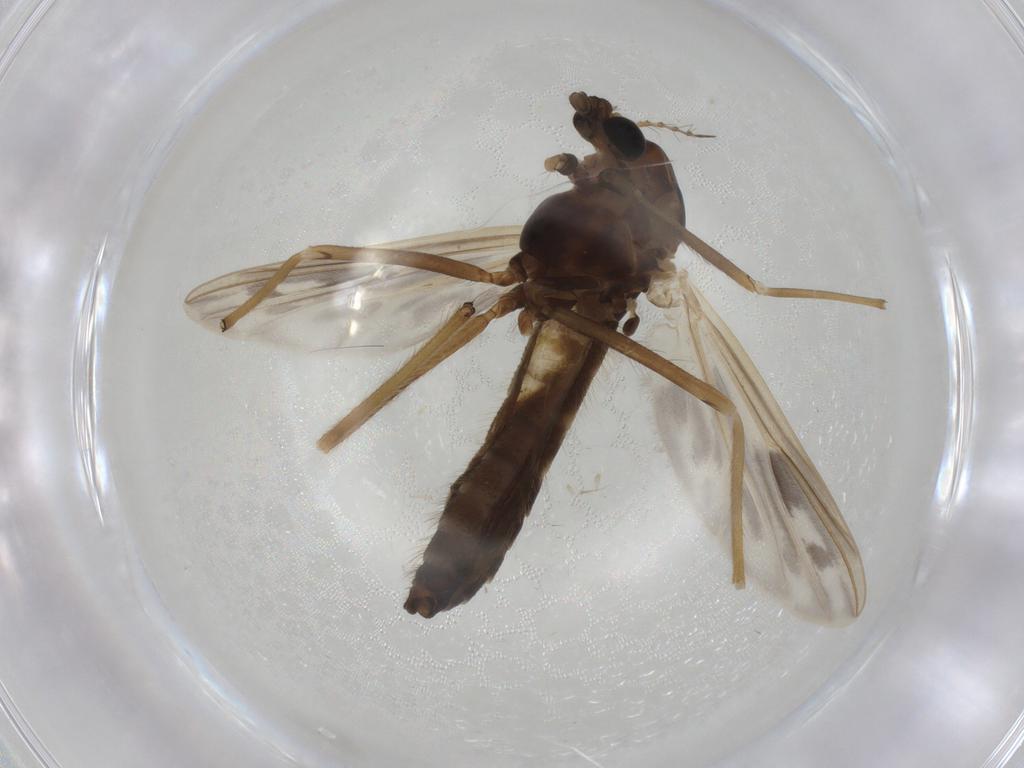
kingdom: Animalia
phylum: Arthropoda
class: Insecta
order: Diptera
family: Chironomidae
